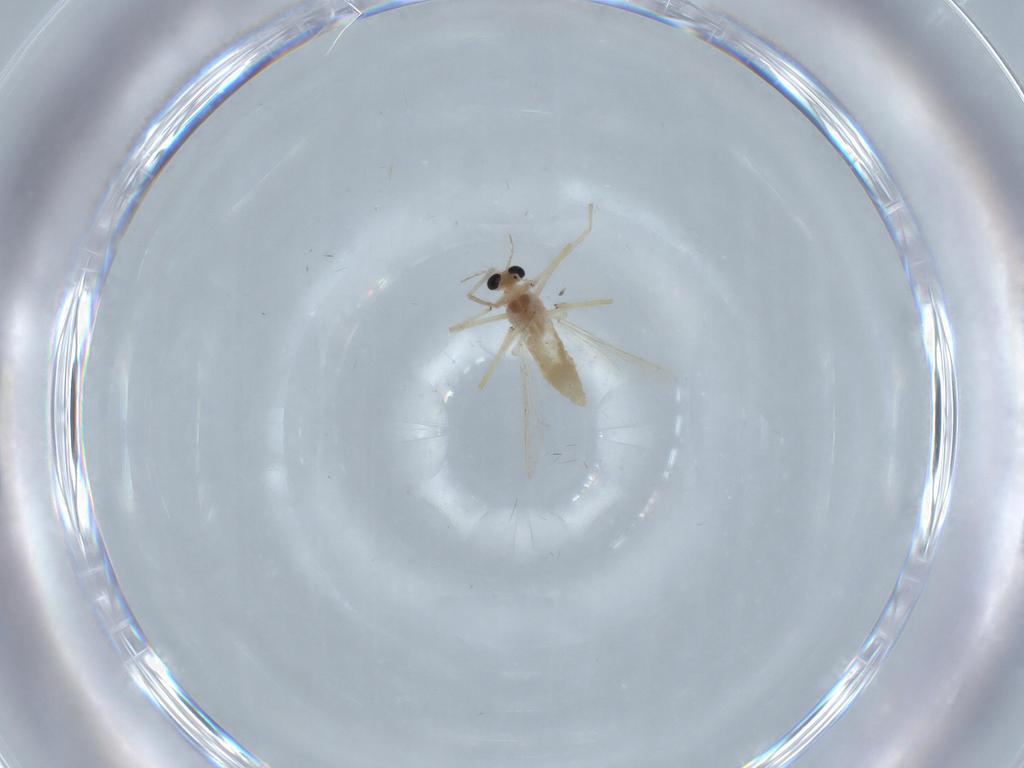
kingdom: Animalia
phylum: Arthropoda
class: Insecta
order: Diptera
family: Chironomidae
